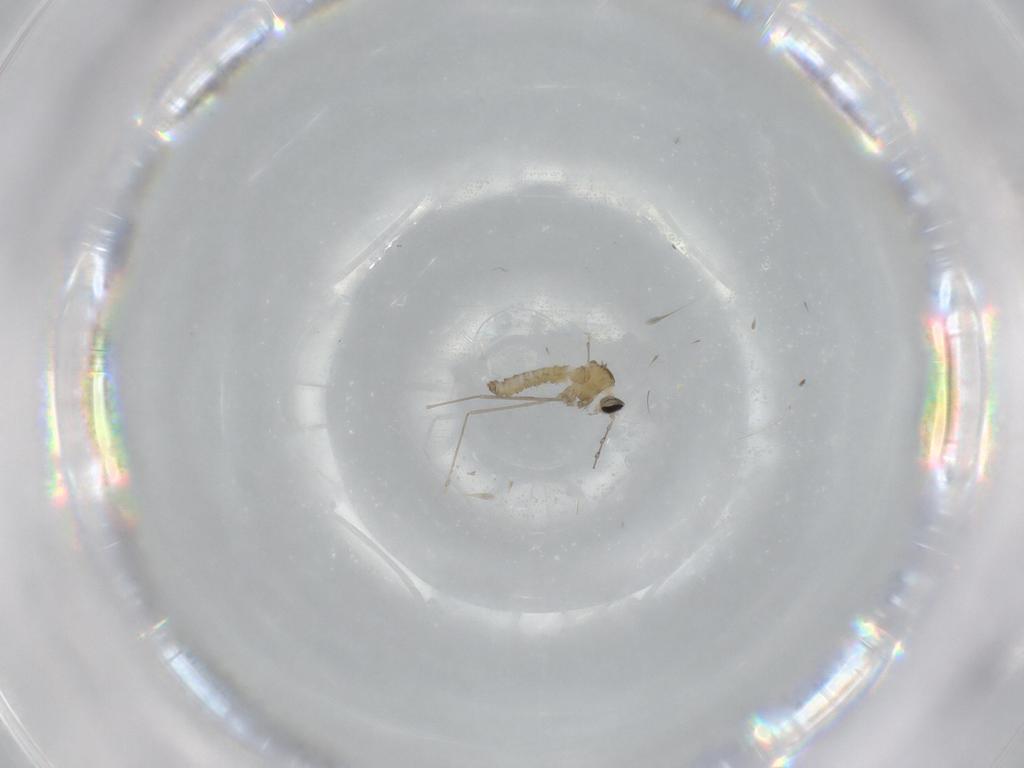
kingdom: Animalia
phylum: Arthropoda
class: Insecta
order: Diptera
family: Cecidomyiidae
